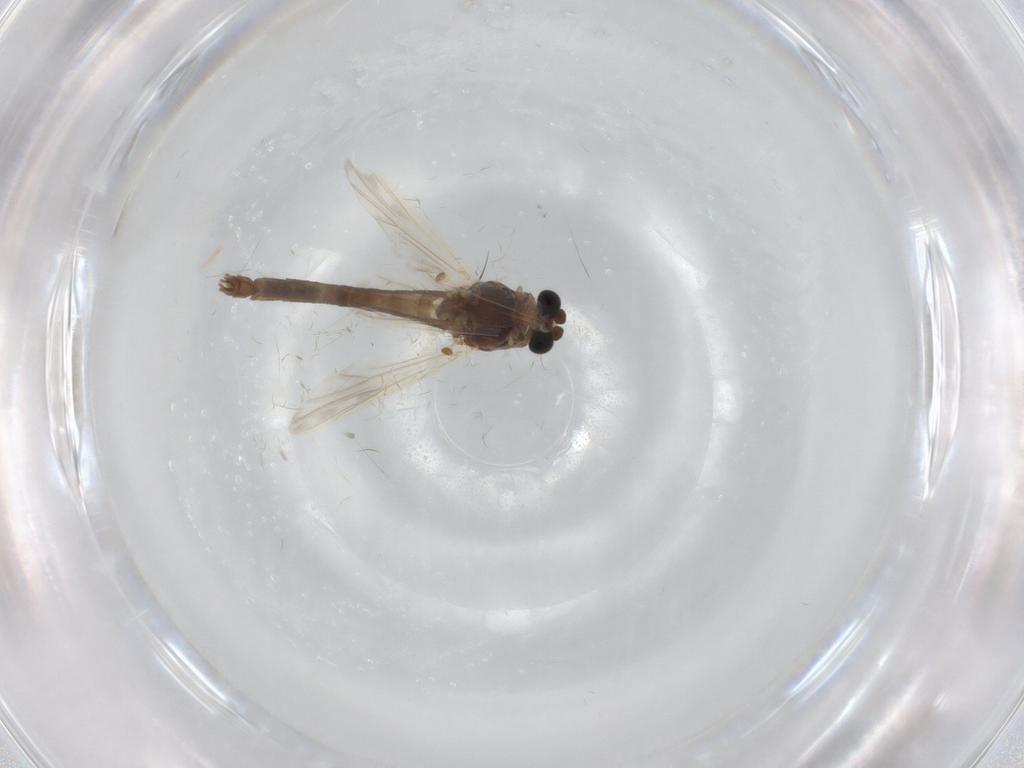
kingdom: Animalia
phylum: Arthropoda
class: Insecta
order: Diptera
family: Chironomidae
